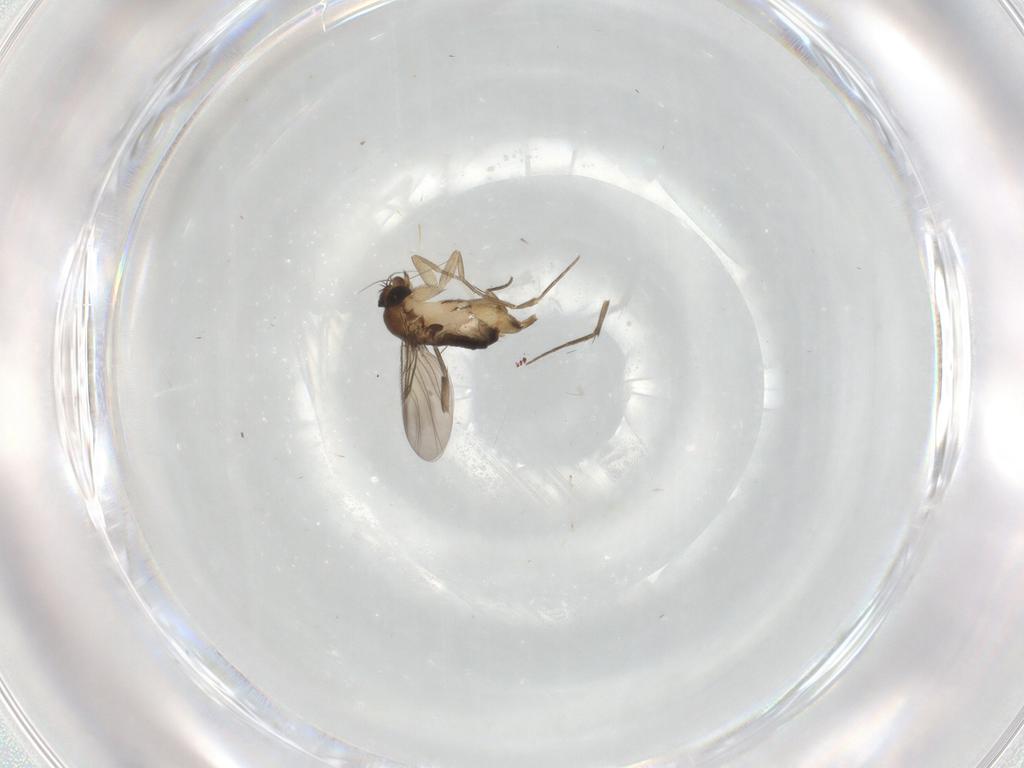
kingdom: Animalia
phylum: Arthropoda
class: Insecta
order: Diptera
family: Phoridae
